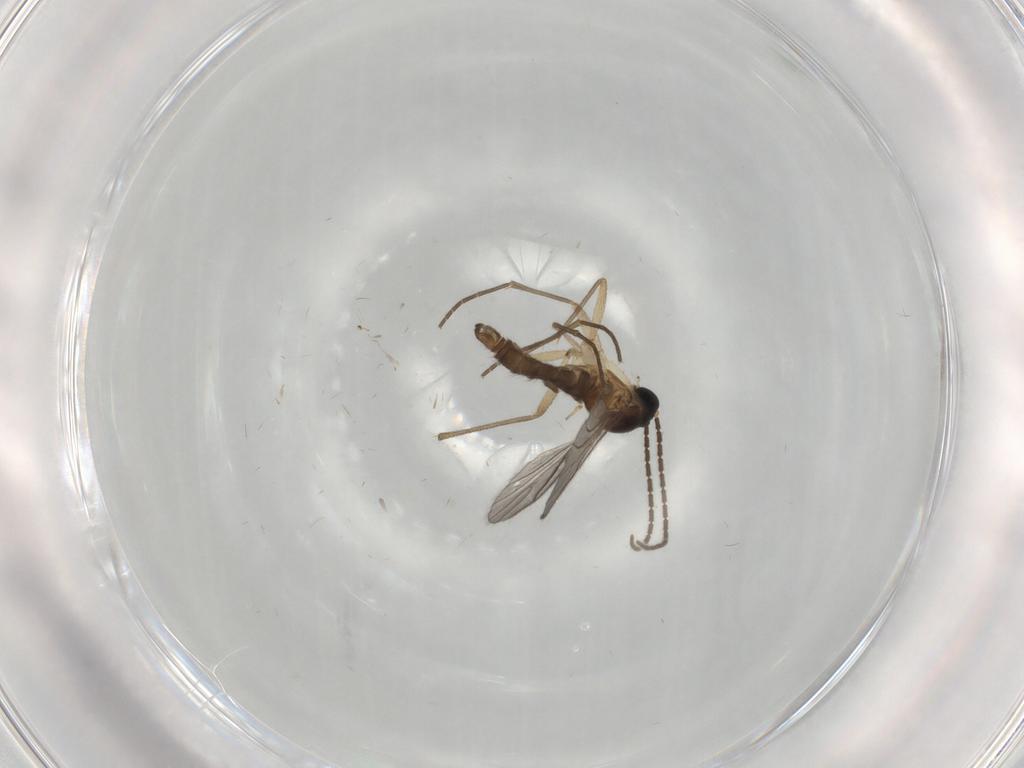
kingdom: Animalia
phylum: Arthropoda
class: Insecta
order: Diptera
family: Sciaridae
